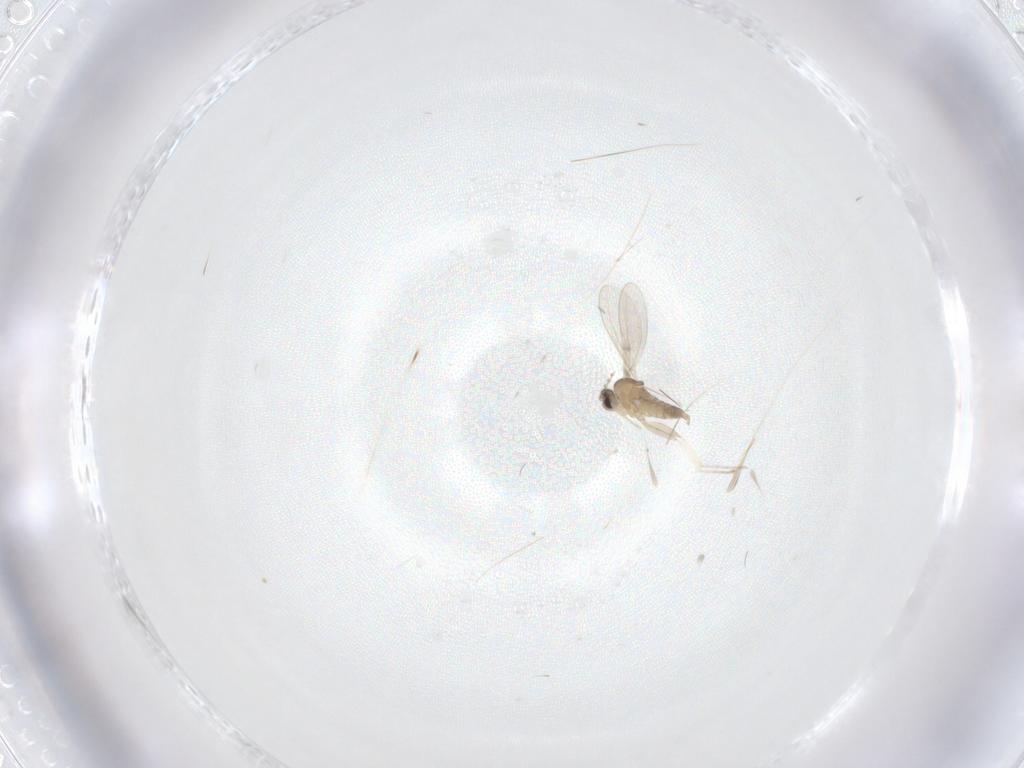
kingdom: Animalia
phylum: Arthropoda
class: Insecta
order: Diptera
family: Cecidomyiidae
